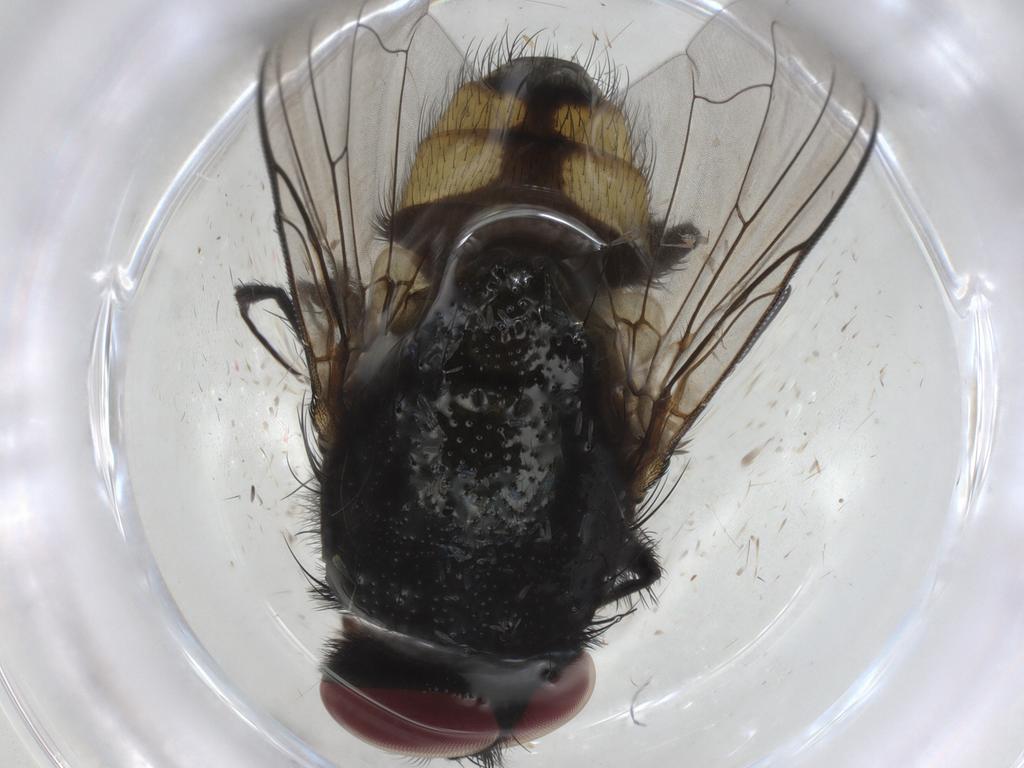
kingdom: Animalia
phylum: Arthropoda
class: Insecta
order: Diptera
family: Muscidae
